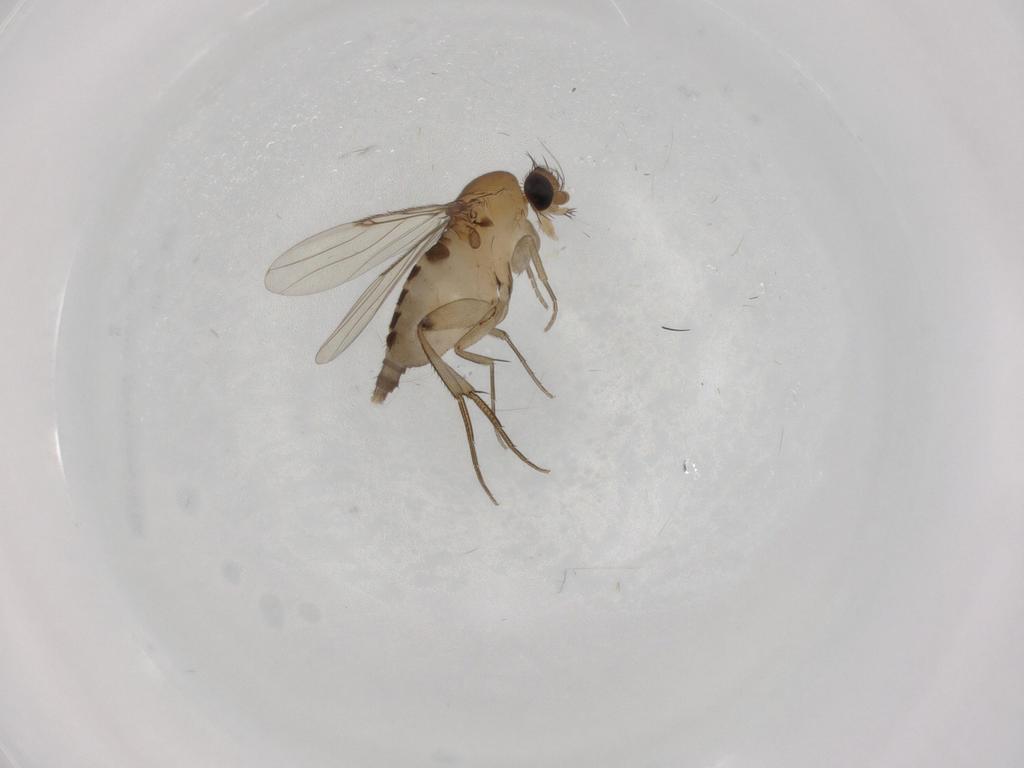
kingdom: Animalia
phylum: Arthropoda
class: Insecta
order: Diptera
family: Phoridae
